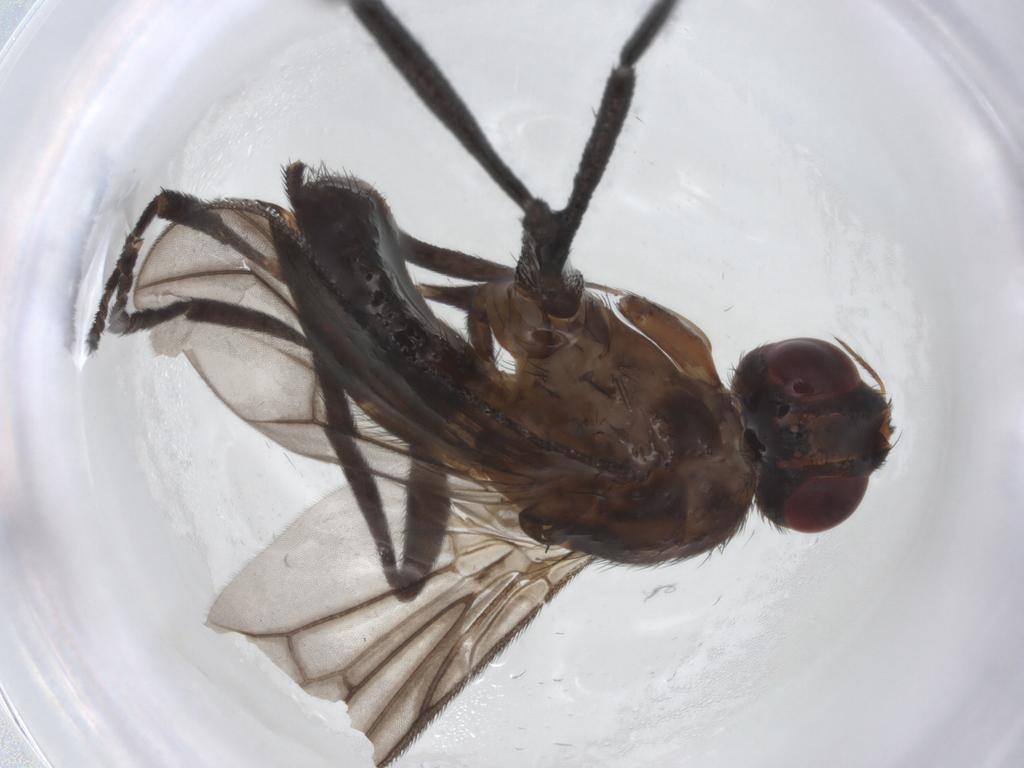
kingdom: Animalia
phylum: Arthropoda
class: Insecta
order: Diptera
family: Calliphoridae
